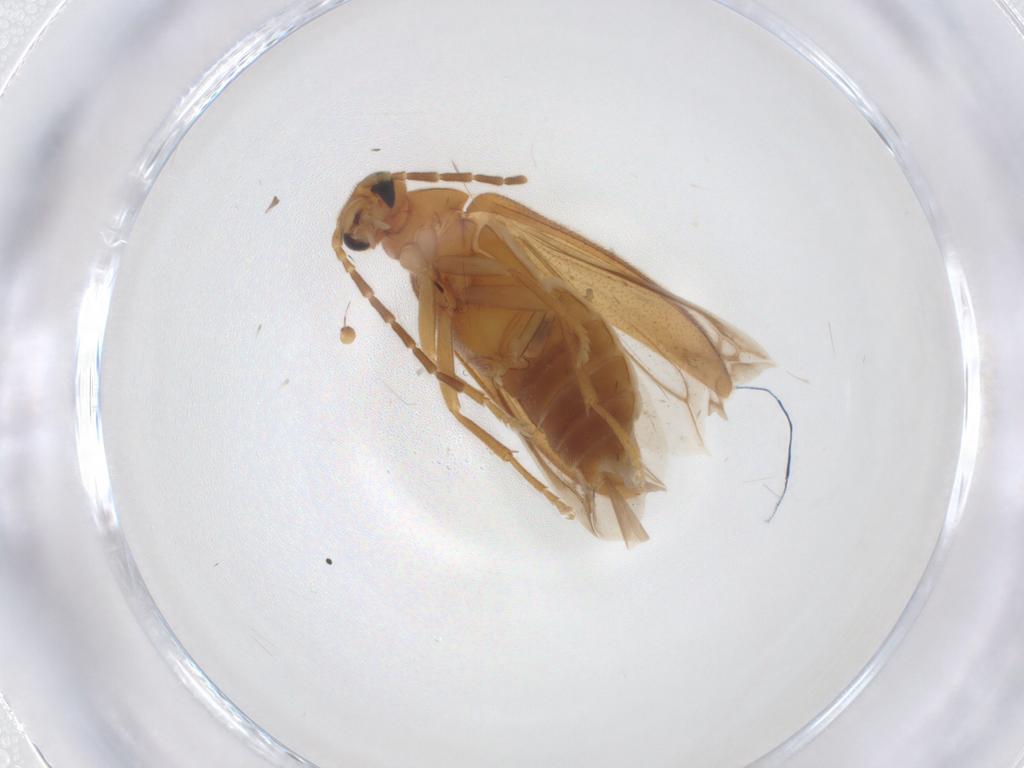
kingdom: Animalia
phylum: Arthropoda
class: Insecta
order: Coleoptera
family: Scraptiidae
